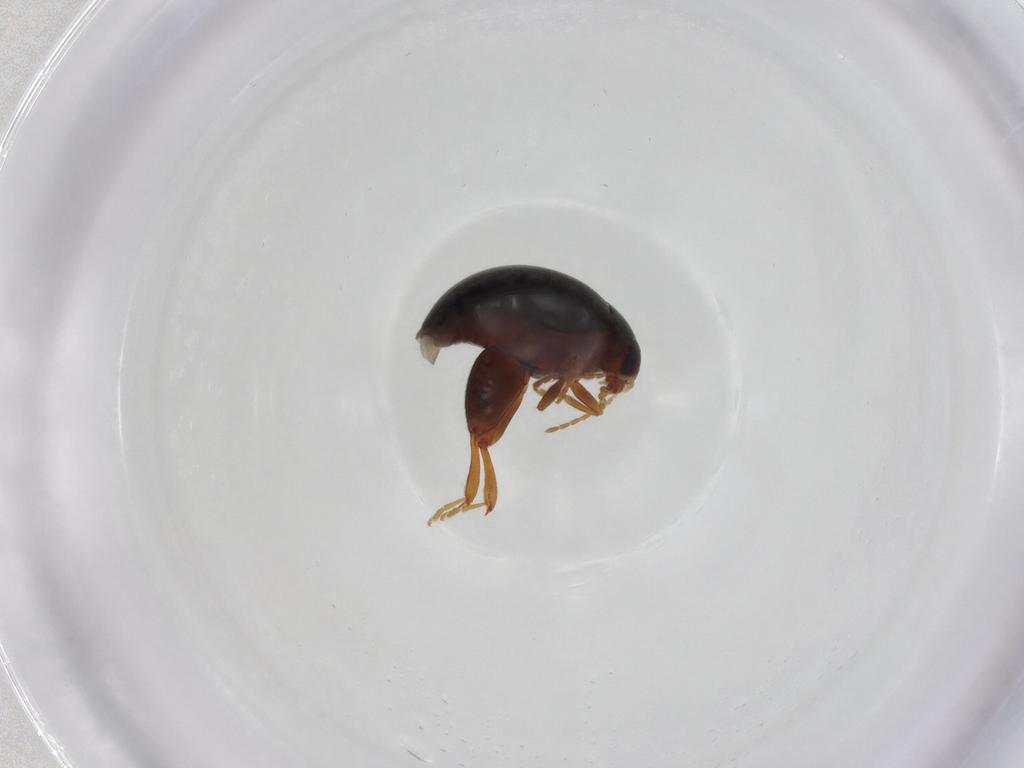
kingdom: Animalia
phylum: Arthropoda
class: Insecta
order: Coleoptera
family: Chrysomelidae
